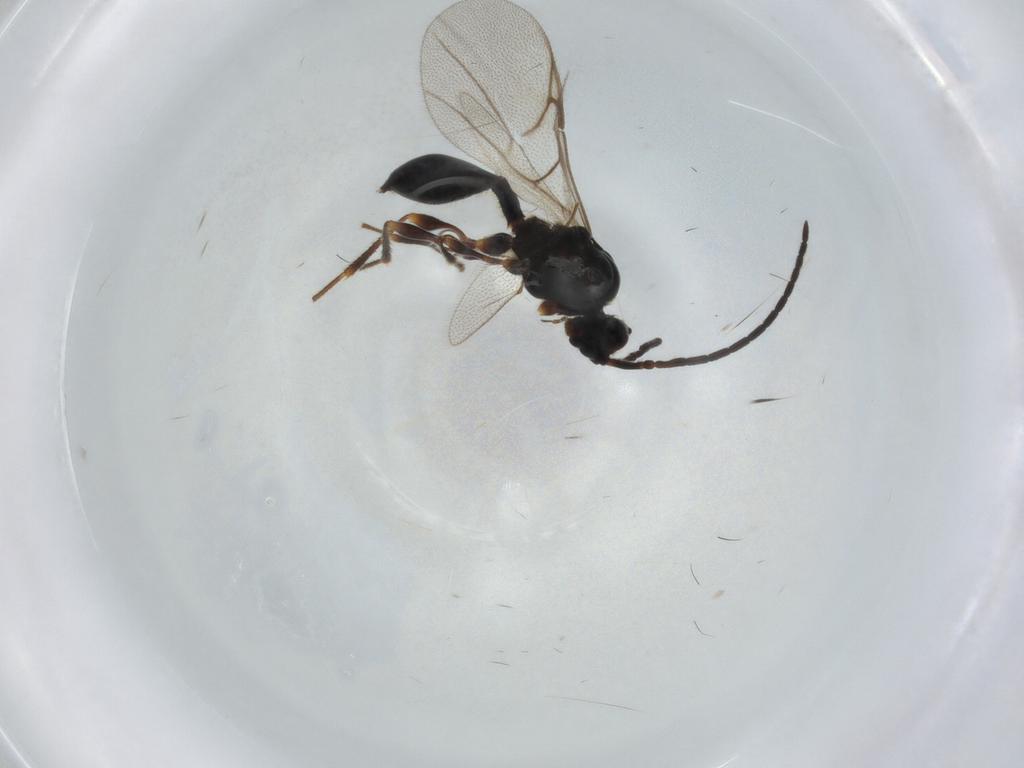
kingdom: Animalia
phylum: Arthropoda
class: Insecta
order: Hymenoptera
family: Diapriidae
